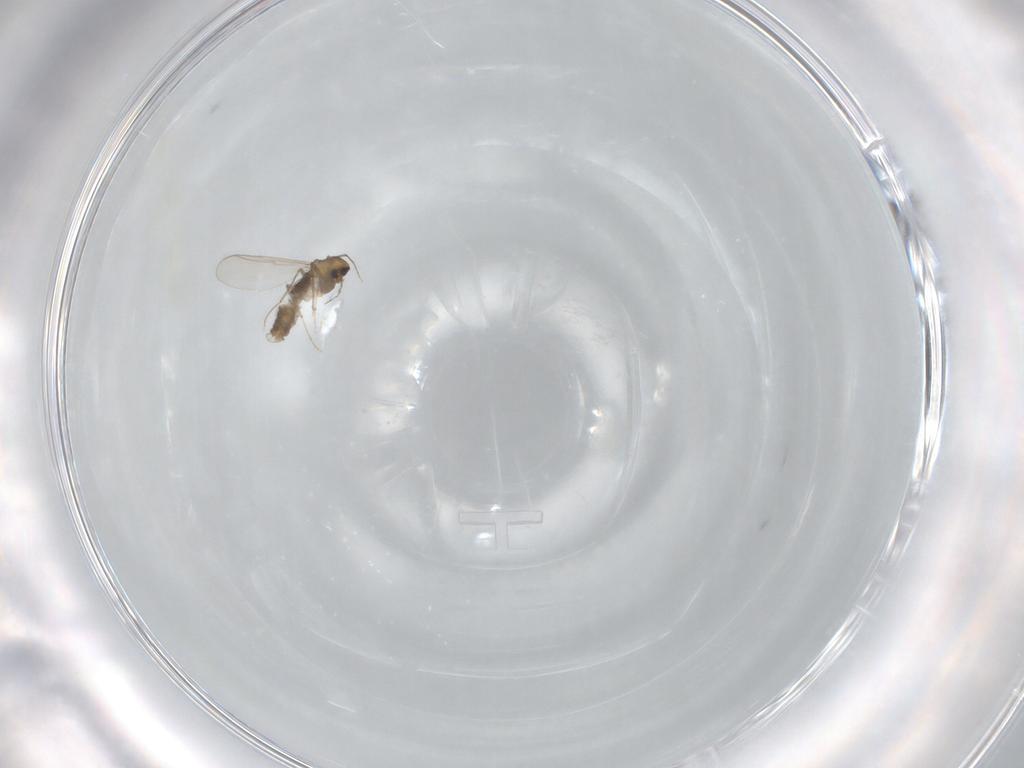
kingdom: Animalia
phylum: Arthropoda
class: Insecta
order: Diptera
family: Chironomidae
